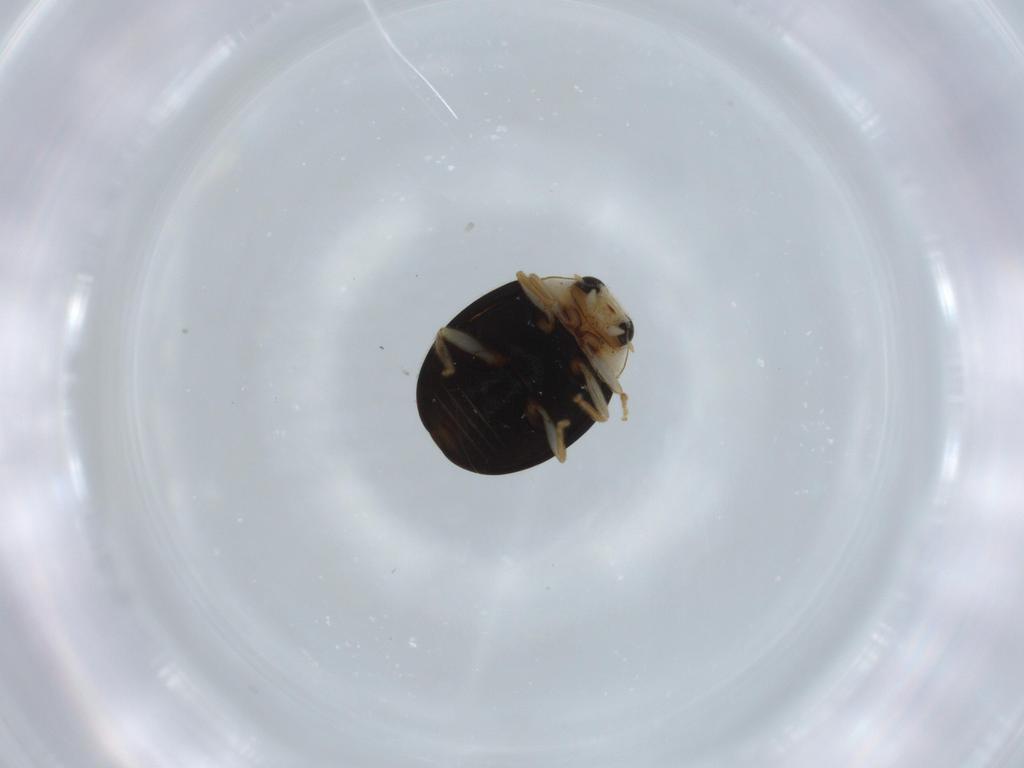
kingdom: Animalia
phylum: Arthropoda
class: Insecta
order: Coleoptera
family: Coccinellidae
